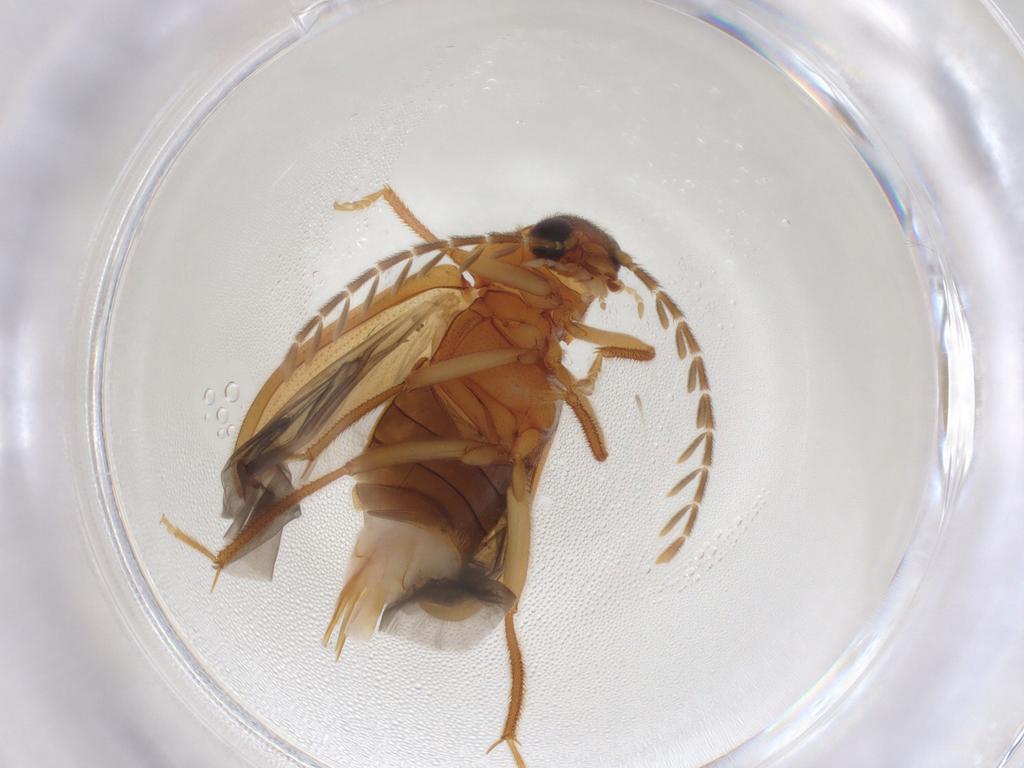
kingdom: Animalia
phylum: Arthropoda
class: Insecta
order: Coleoptera
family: Ptilodactylidae
